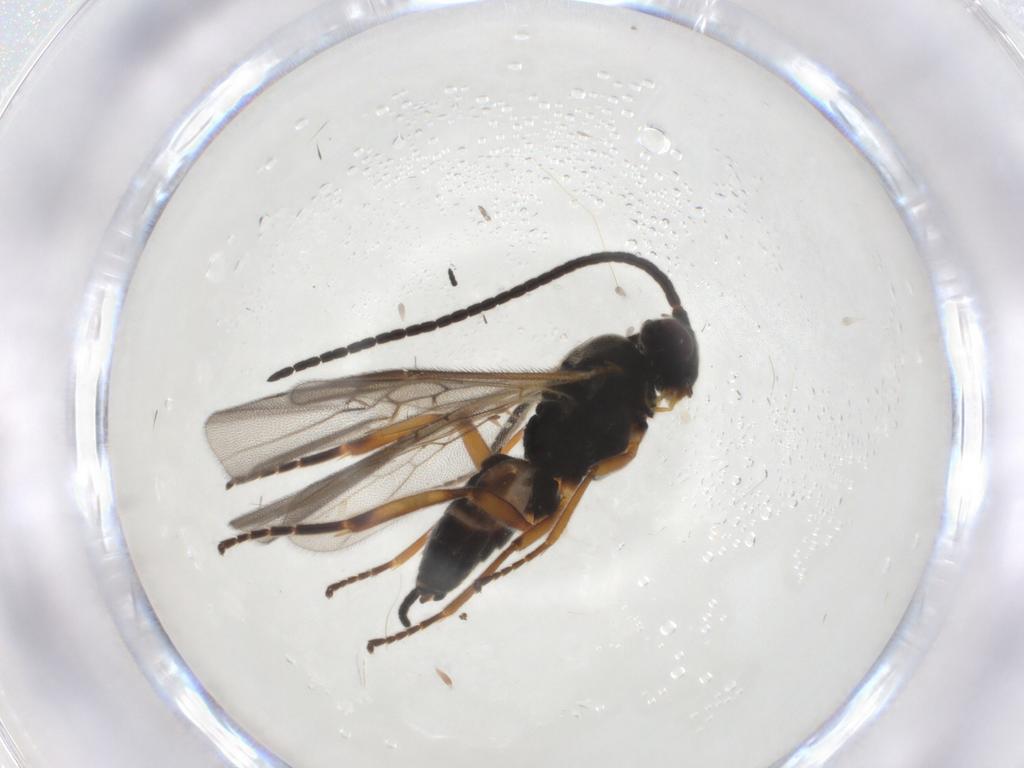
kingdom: Animalia
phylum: Arthropoda
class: Insecta
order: Hymenoptera
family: Braconidae
